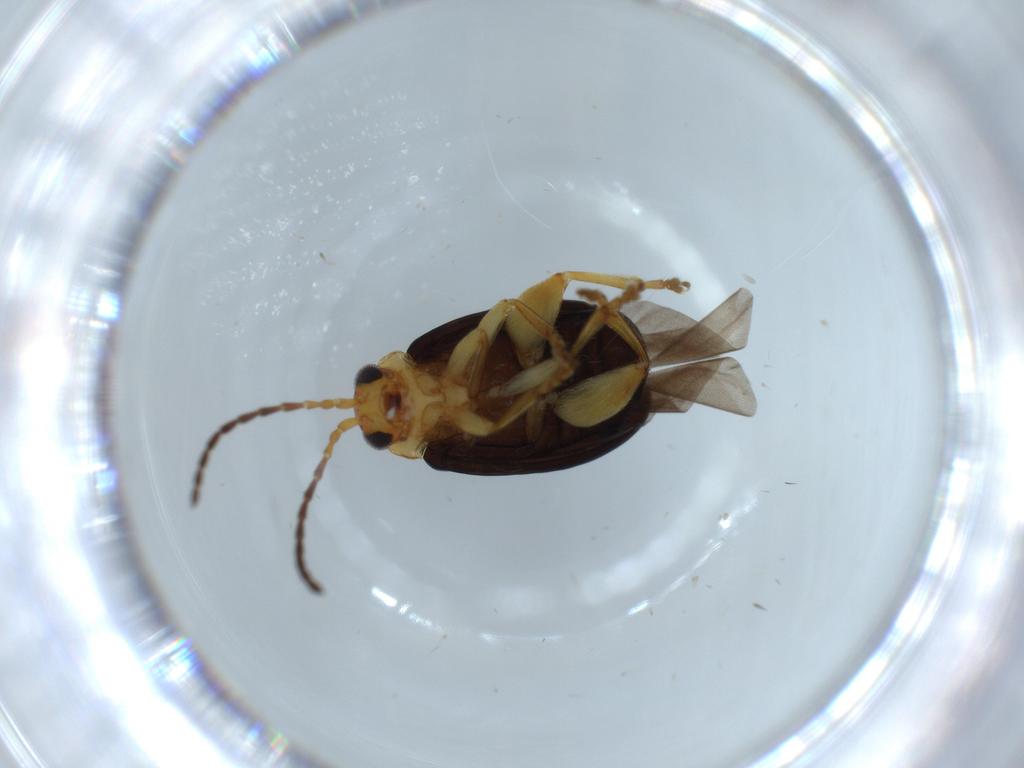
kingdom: Animalia
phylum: Arthropoda
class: Insecta
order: Coleoptera
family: Chrysomelidae
